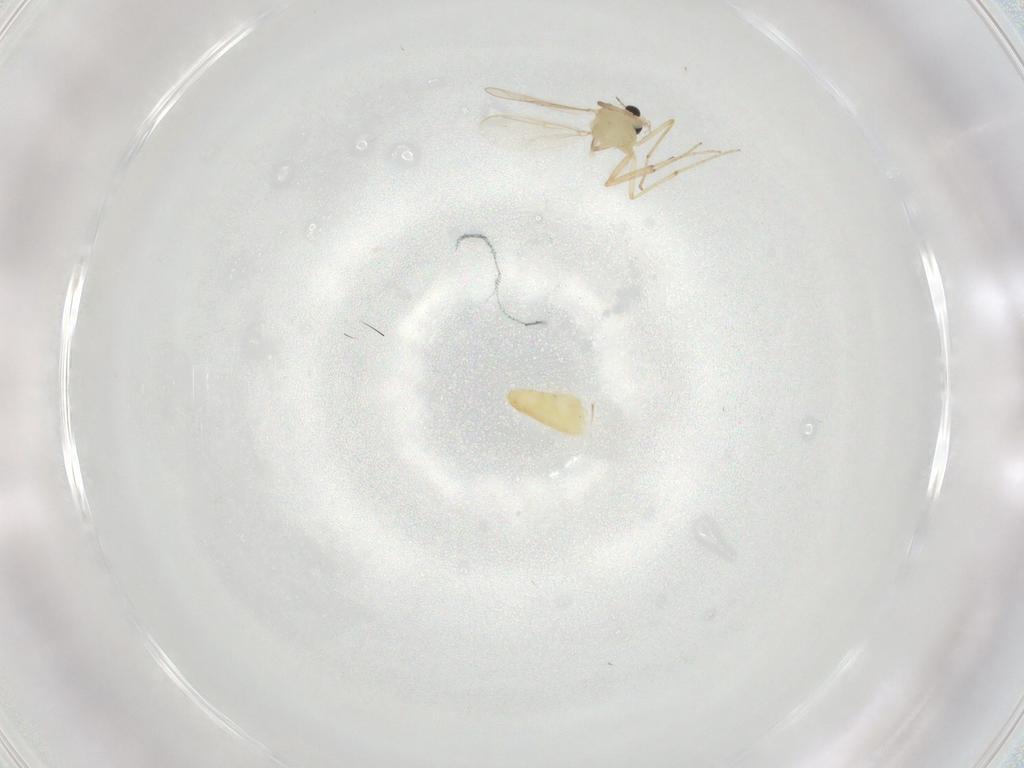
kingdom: Animalia
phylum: Arthropoda
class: Insecta
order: Diptera
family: Chironomidae
